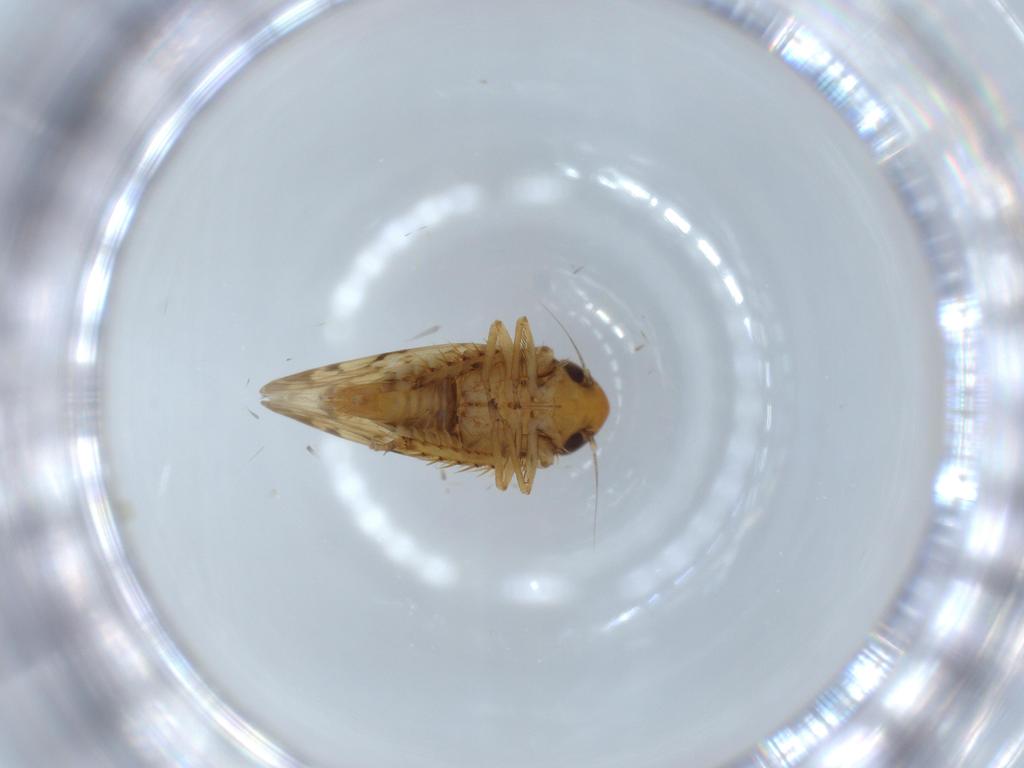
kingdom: Animalia
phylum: Arthropoda
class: Insecta
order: Hemiptera
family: Cicadellidae
